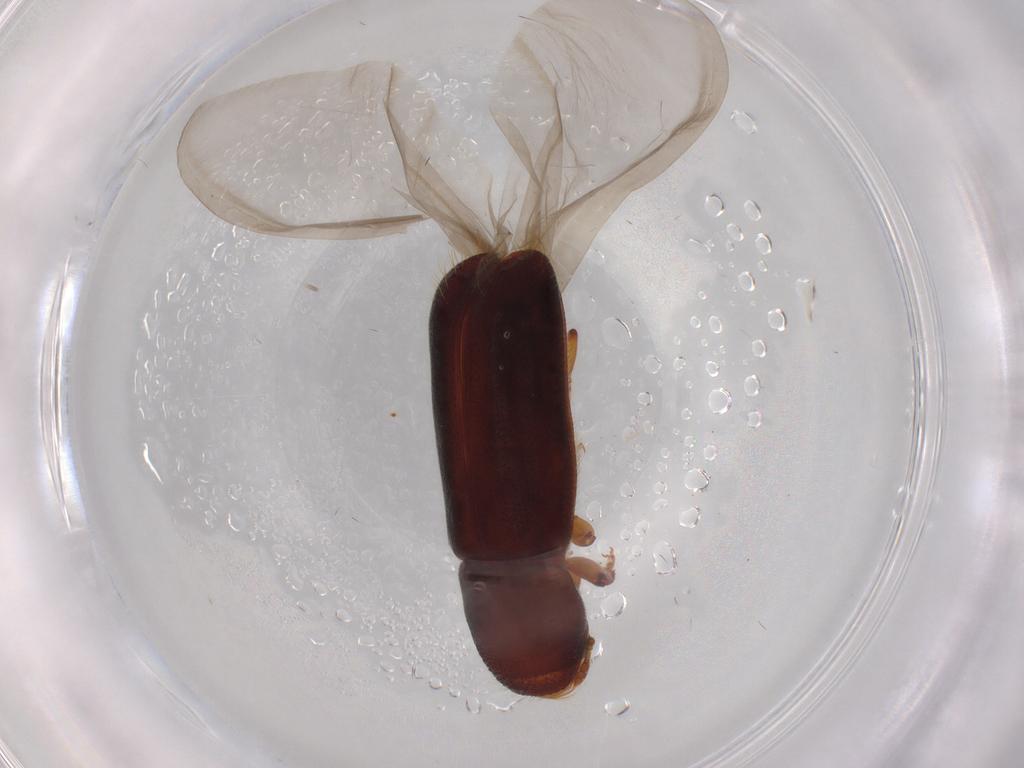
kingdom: Animalia
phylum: Arthropoda
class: Insecta
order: Coleoptera
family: Curculionidae
